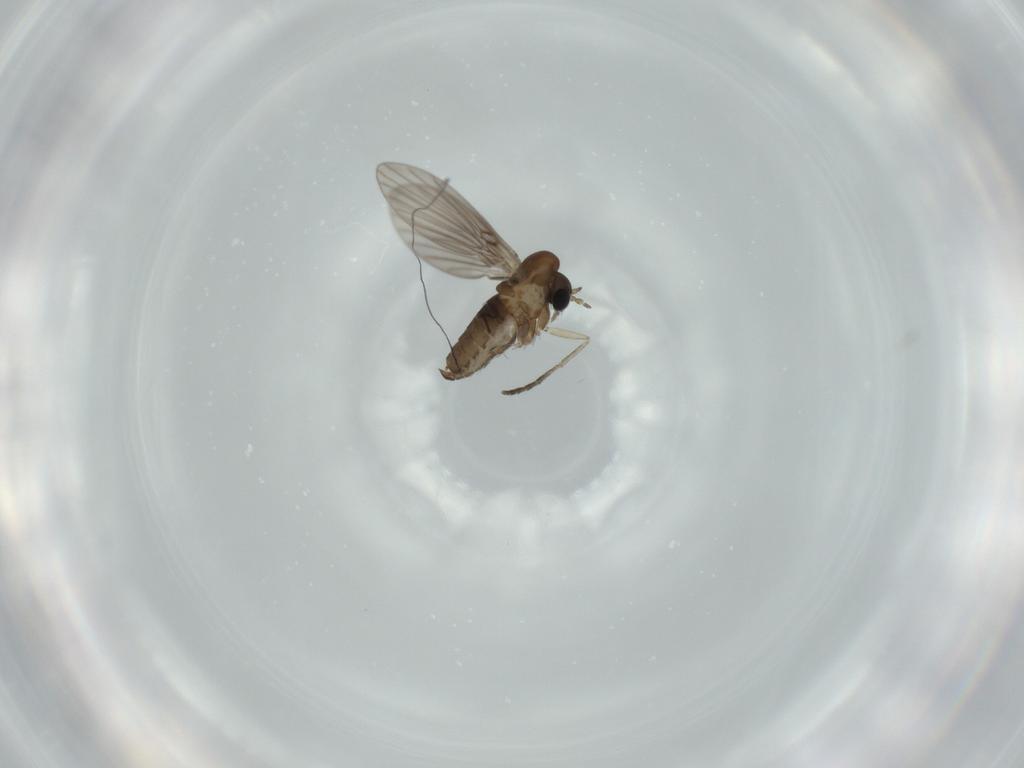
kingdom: Animalia
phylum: Arthropoda
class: Insecta
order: Diptera
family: Psychodidae
